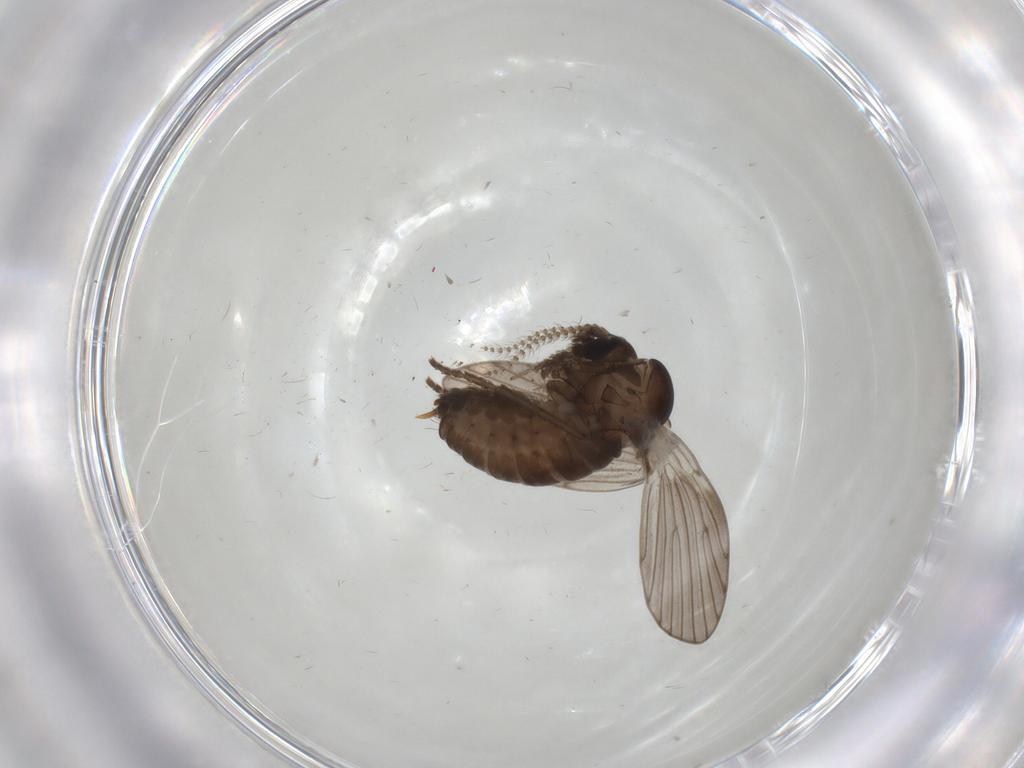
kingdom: Animalia
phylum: Arthropoda
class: Insecta
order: Diptera
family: Psychodidae
